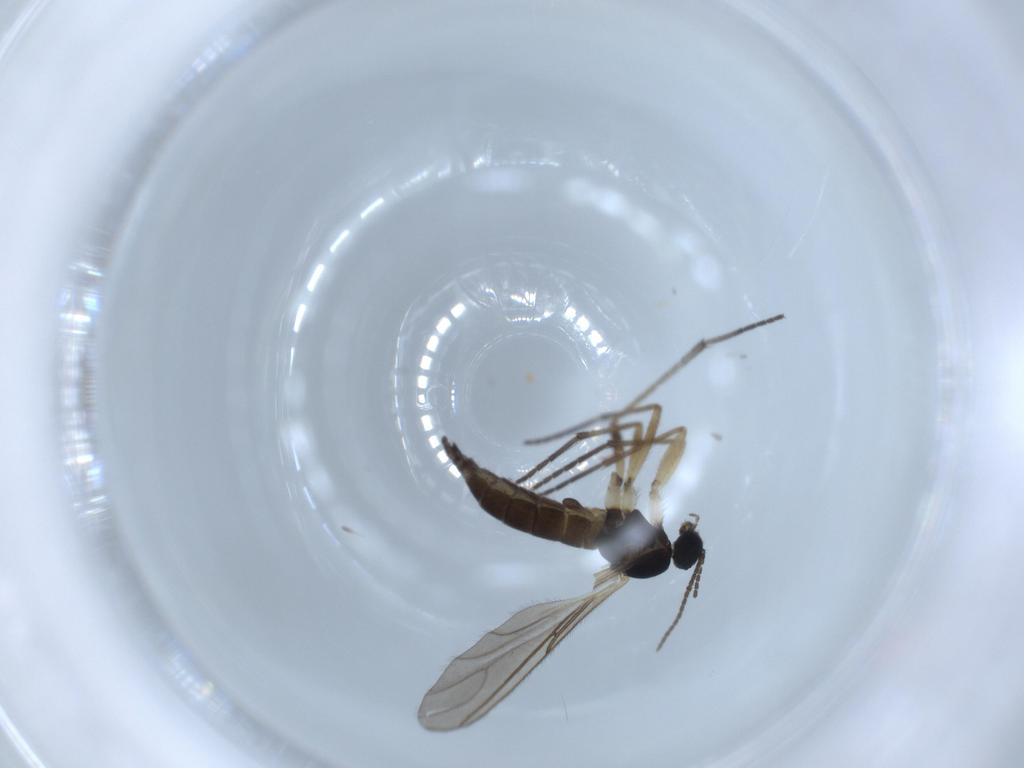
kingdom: Animalia
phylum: Arthropoda
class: Insecta
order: Diptera
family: Sciaridae
